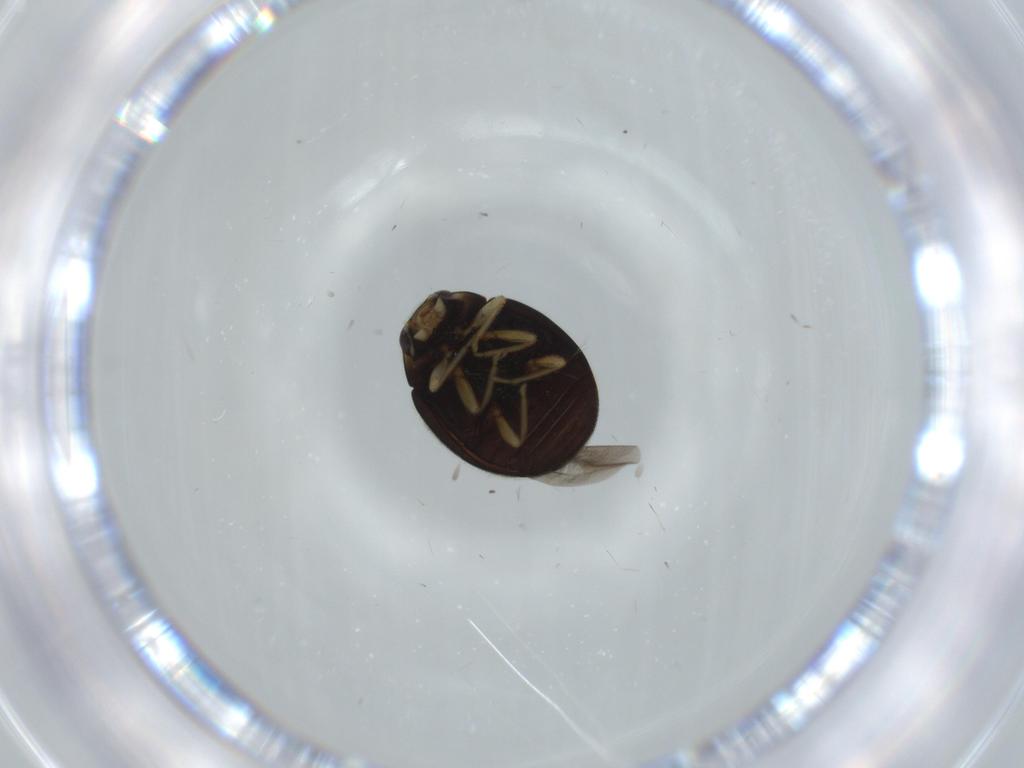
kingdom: Animalia
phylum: Arthropoda
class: Insecta
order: Coleoptera
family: Coccinellidae
